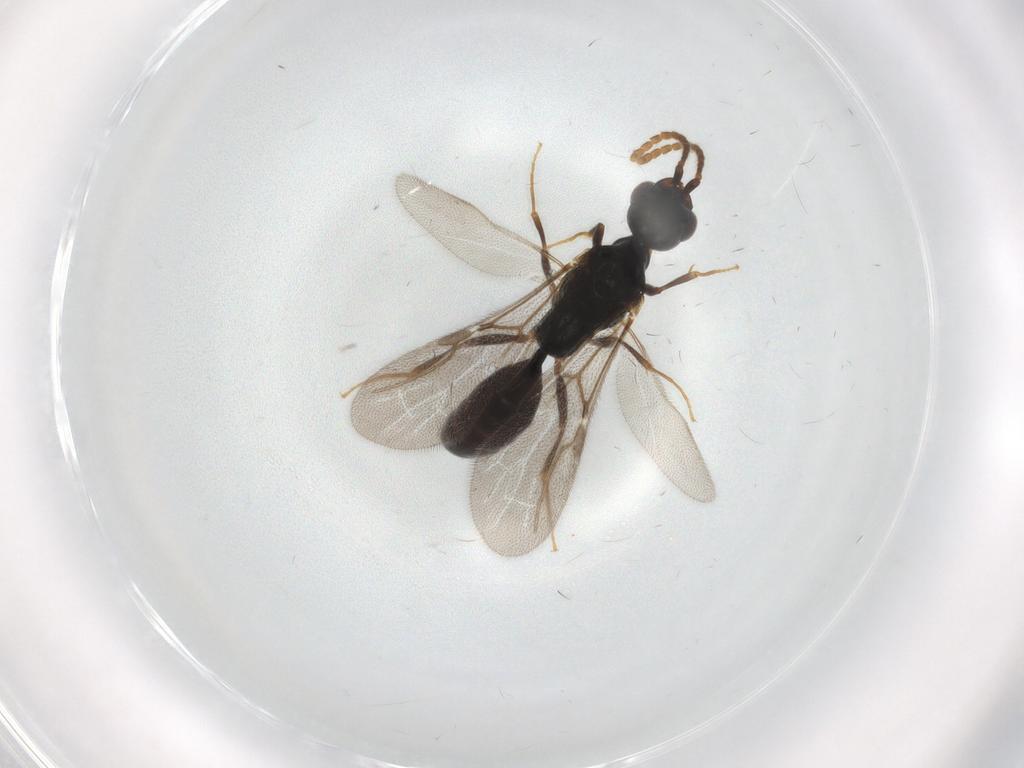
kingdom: Animalia
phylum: Arthropoda
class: Insecta
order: Hymenoptera
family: Bethylidae
